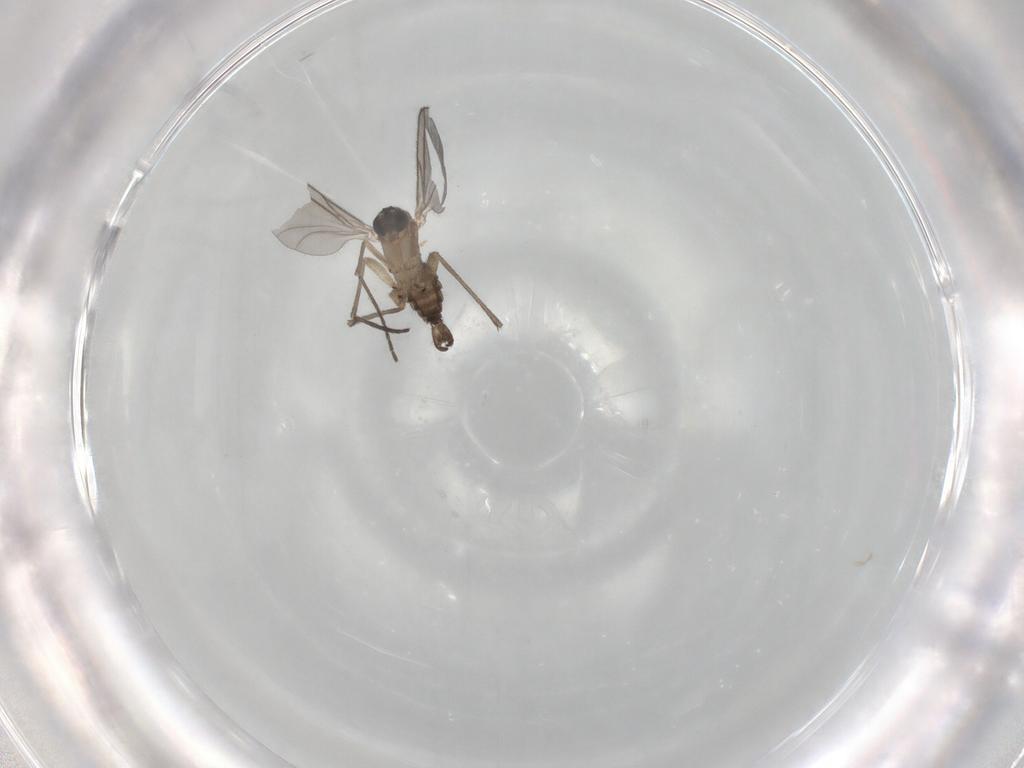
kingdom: Animalia
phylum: Arthropoda
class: Insecta
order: Diptera
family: Sciaridae
